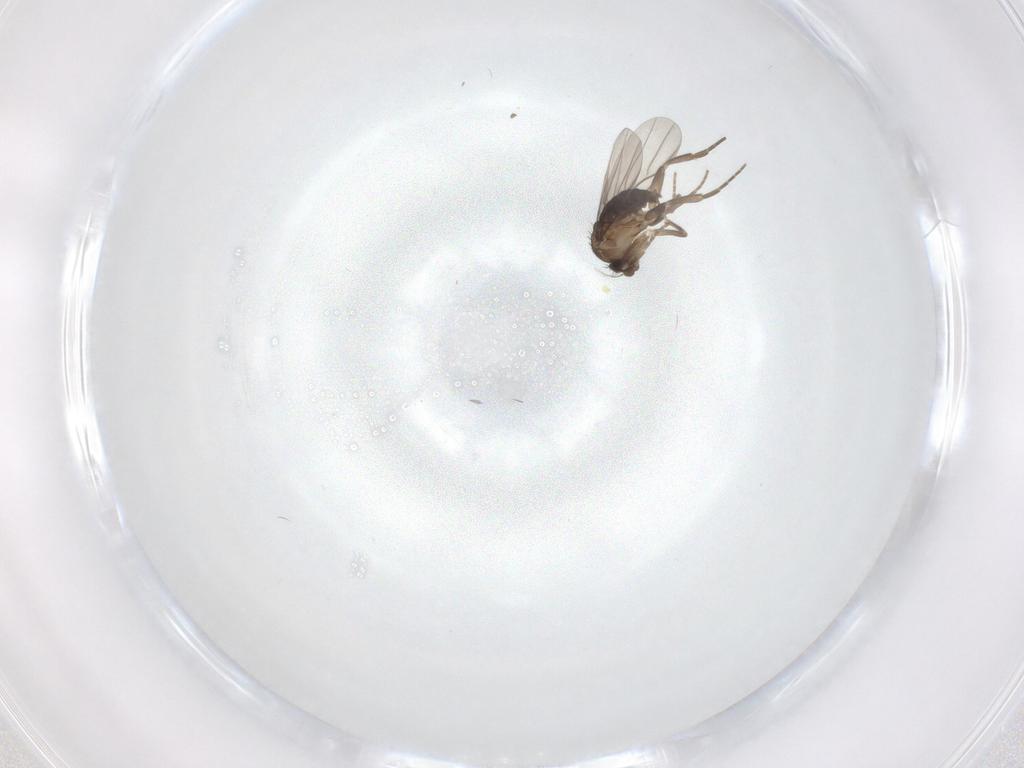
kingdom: Animalia
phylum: Arthropoda
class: Insecta
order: Diptera
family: Phoridae
